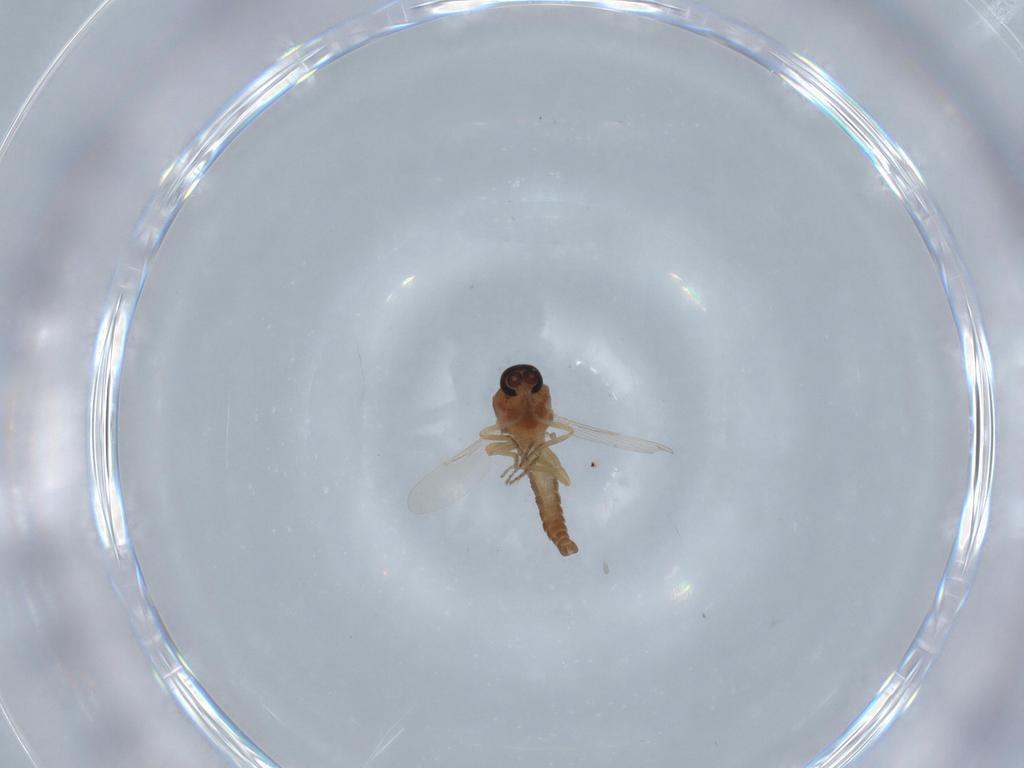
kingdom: Animalia
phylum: Arthropoda
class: Insecta
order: Diptera
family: Ceratopogonidae
